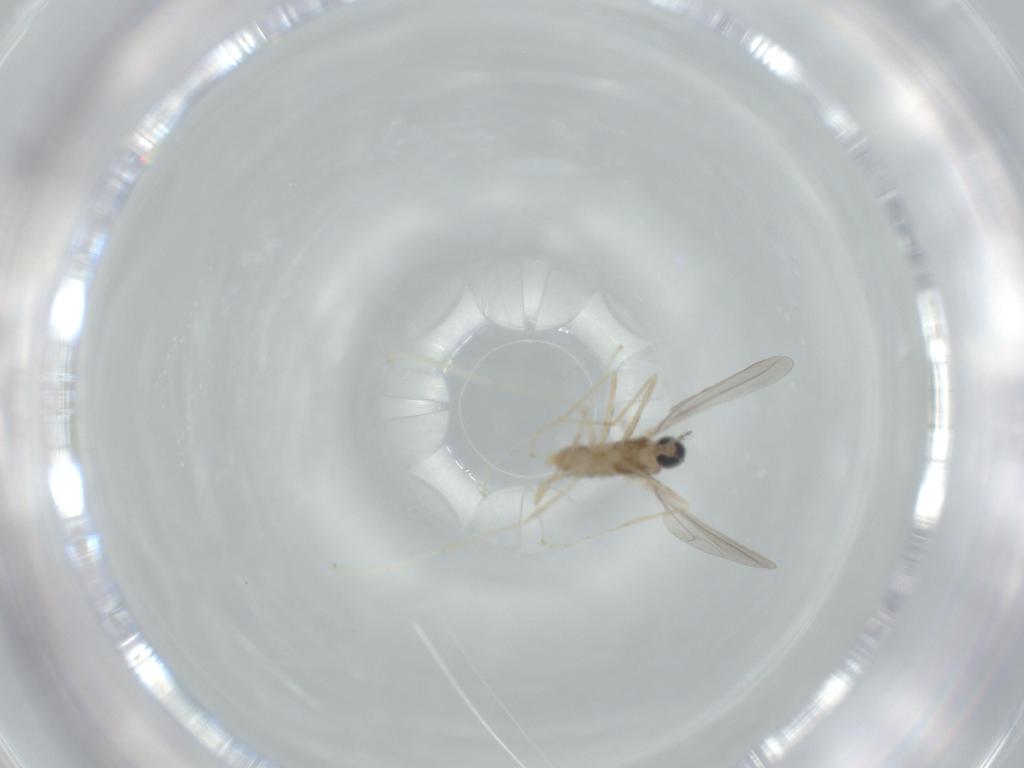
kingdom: Animalia
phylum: Arthropoda
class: Insecta
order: Diptera
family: Cecidomyiidae
